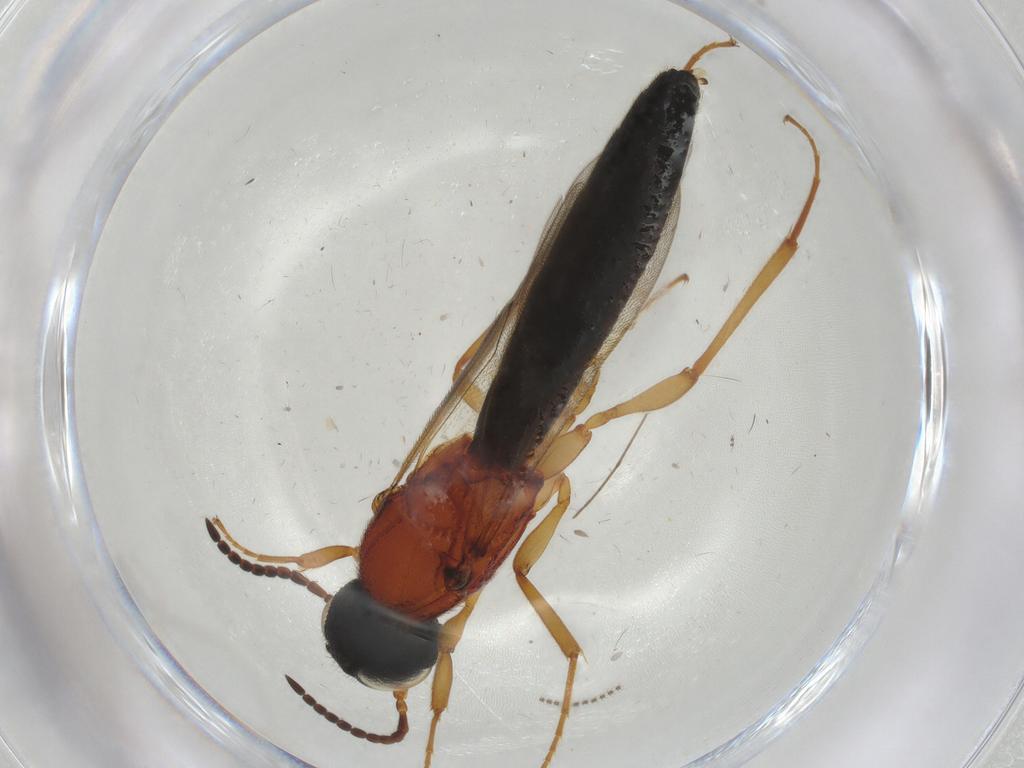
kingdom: Animalia
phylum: Arthropoda
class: Insecta
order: Hymenoptera
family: Scelionidae
